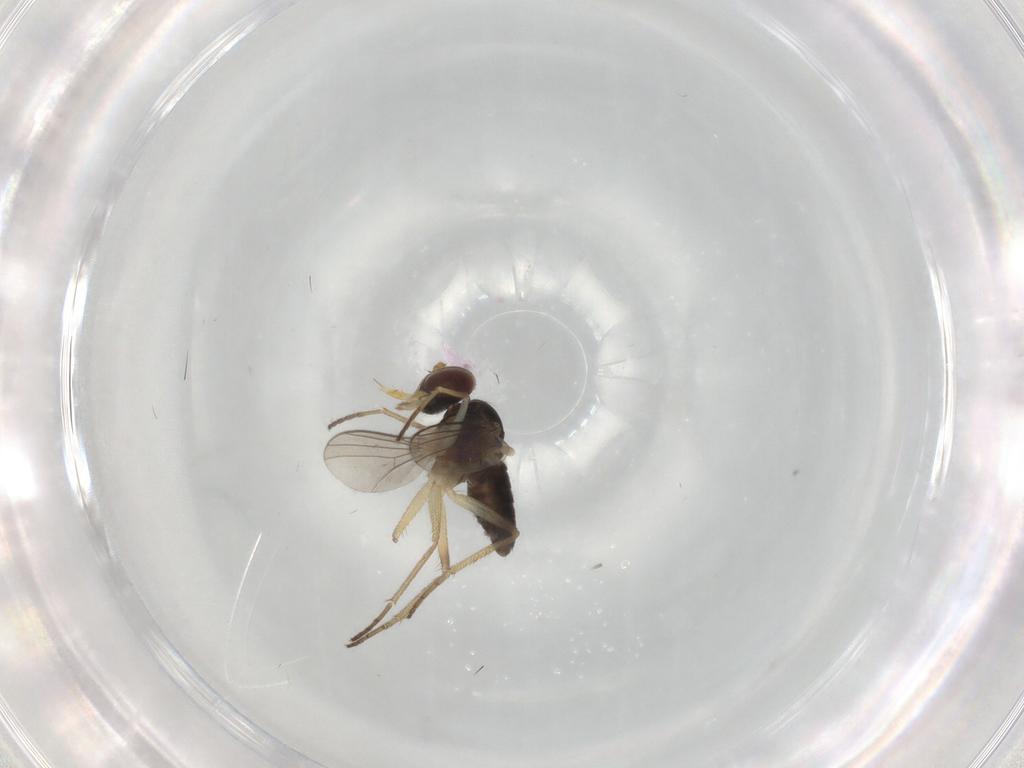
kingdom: Animalia
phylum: Arthropoda
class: Insecta
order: Diptera
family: Dolichopodidae
